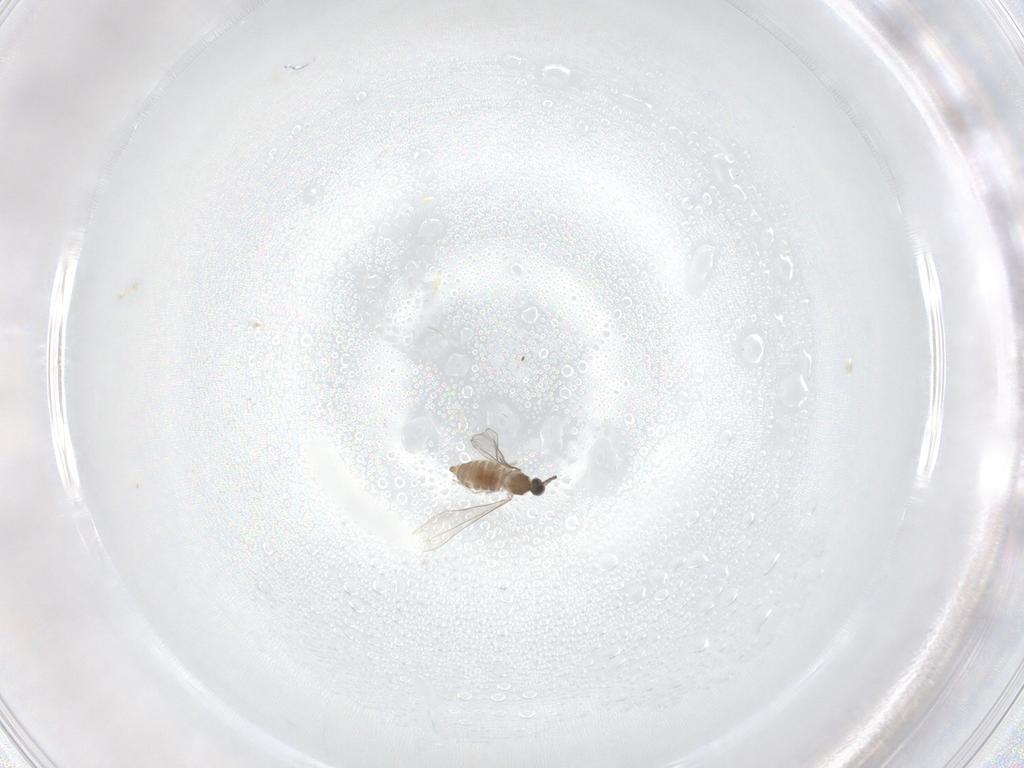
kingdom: Animalia
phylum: Arthropoda
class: Insecta
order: Diptera
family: Cecidomyiidae
